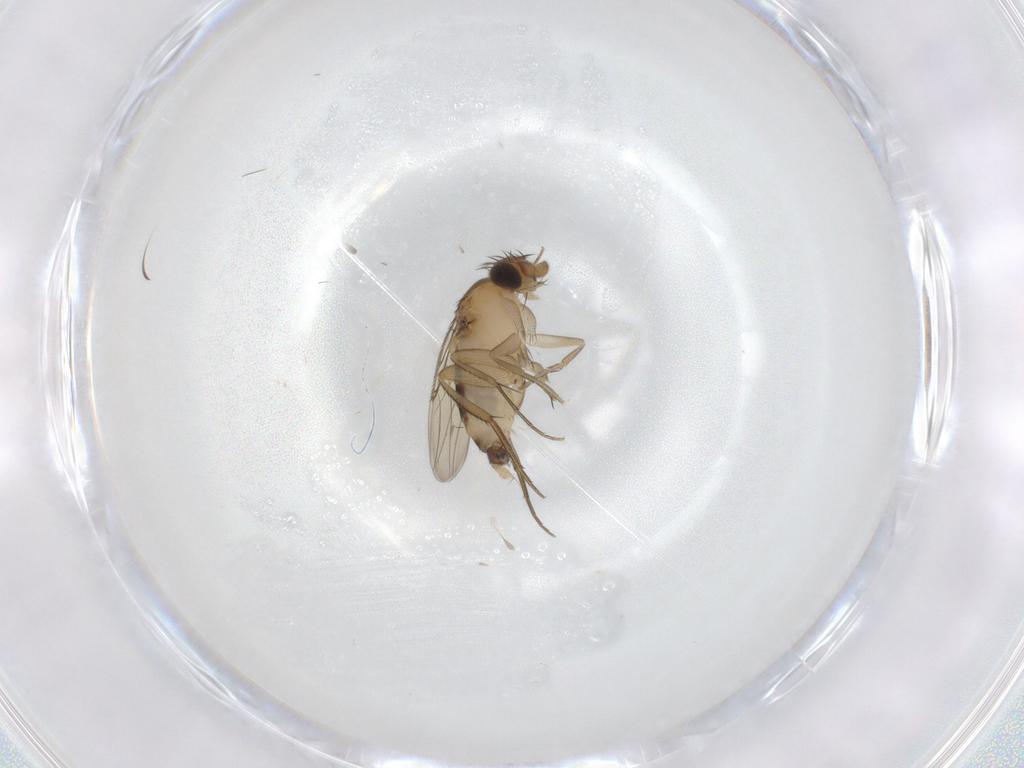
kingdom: Animalia
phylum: Arthropoda
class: Insecta
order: Diptera
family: Phoridae
